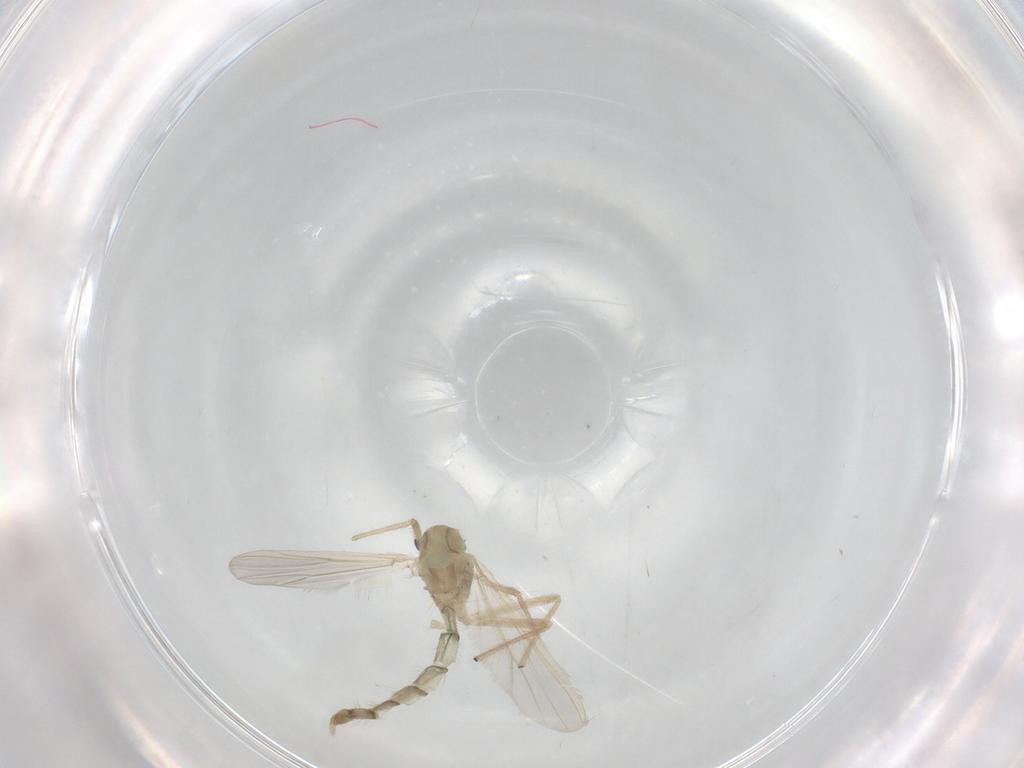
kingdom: Animalia
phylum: Arthropoda
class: Insecta
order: Diptera
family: Chironomidae
